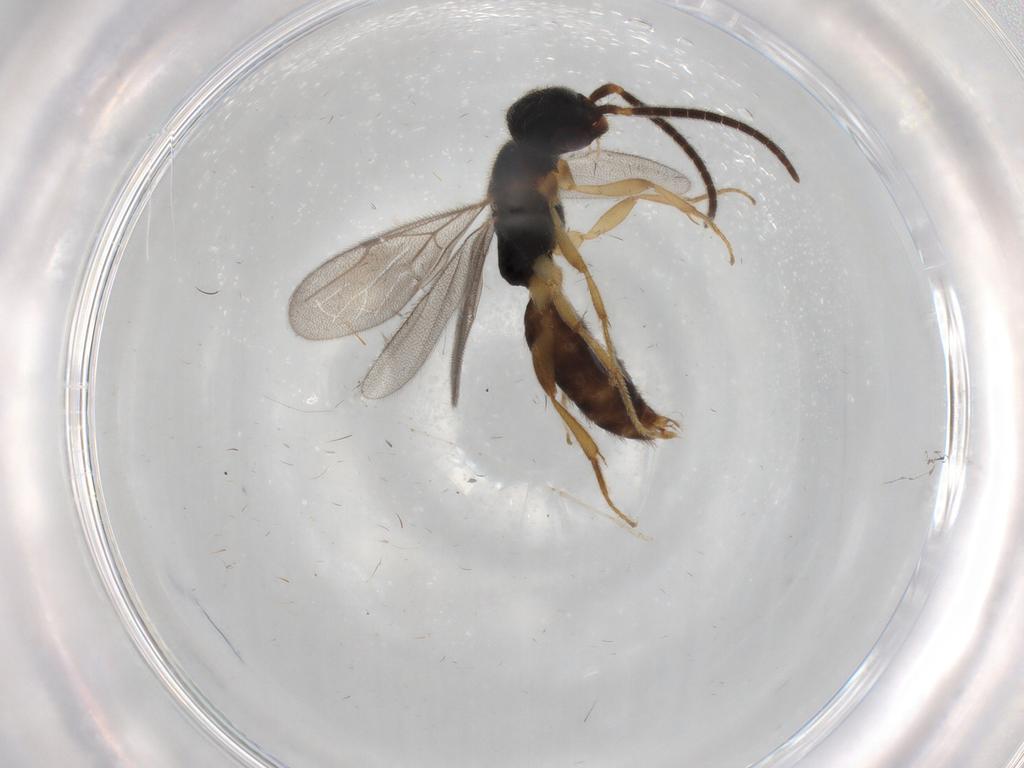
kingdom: Animalia
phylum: Arthropoda
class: Insecta
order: Hymenoptera
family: Bethylidae
